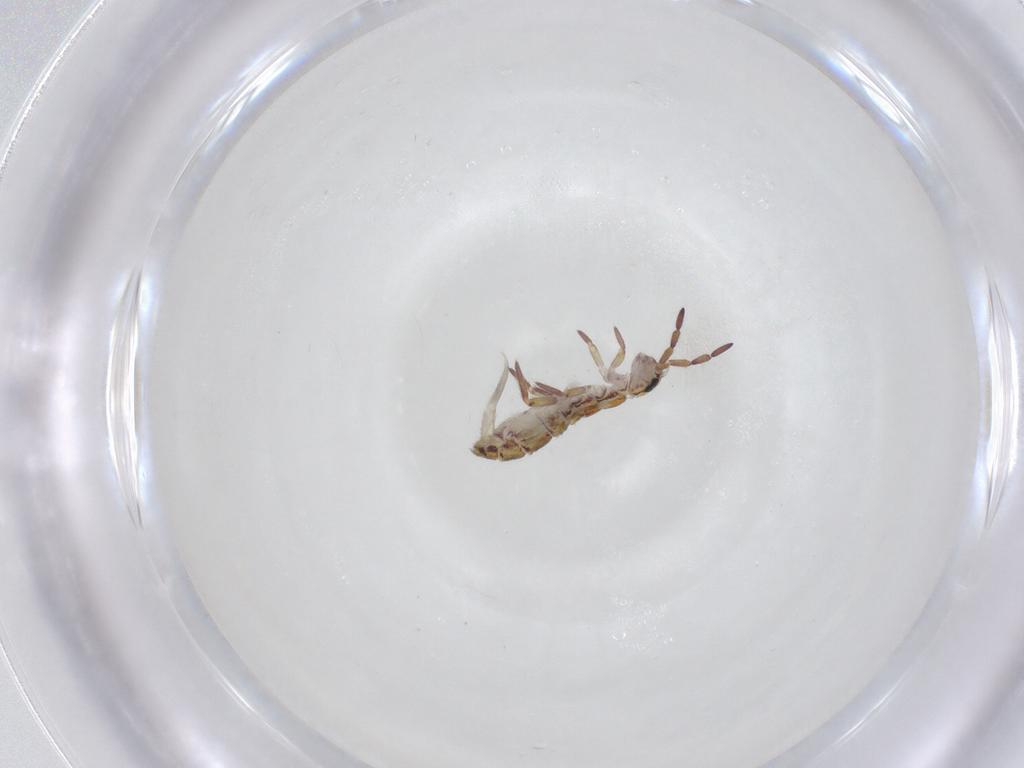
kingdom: Animalia
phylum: Arthropoda
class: Collembola
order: Entomobryomorpha
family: Isotomidae
